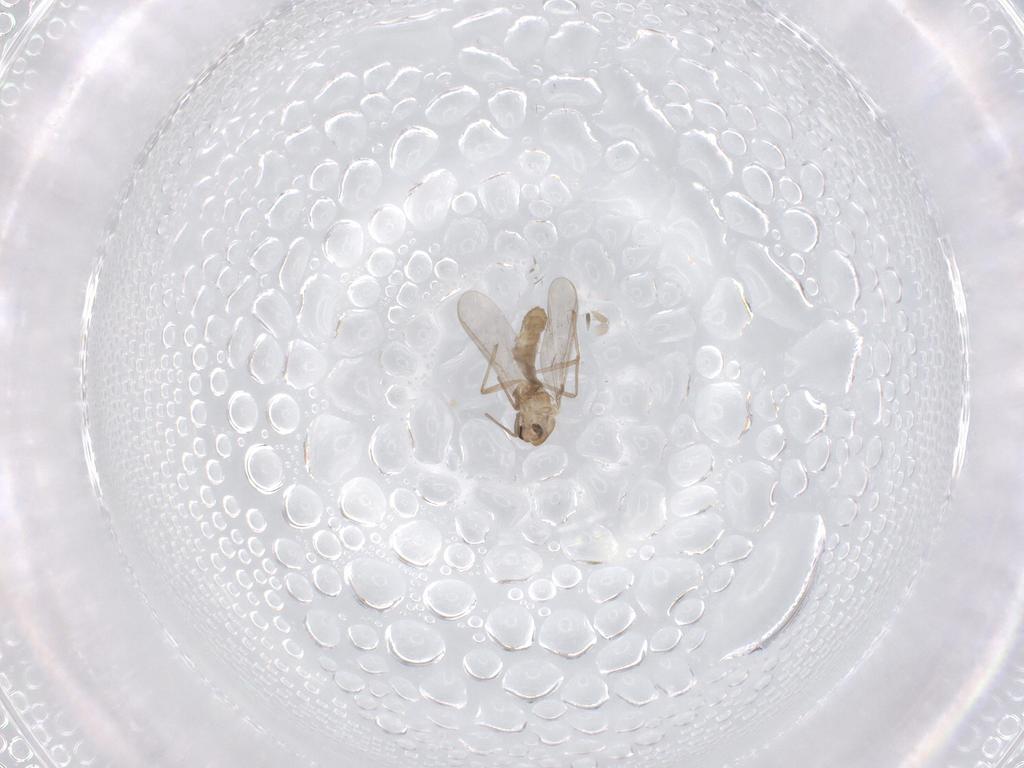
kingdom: Animalia
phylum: Arthropoda
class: Insecta
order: Diptera
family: Chironomidae
